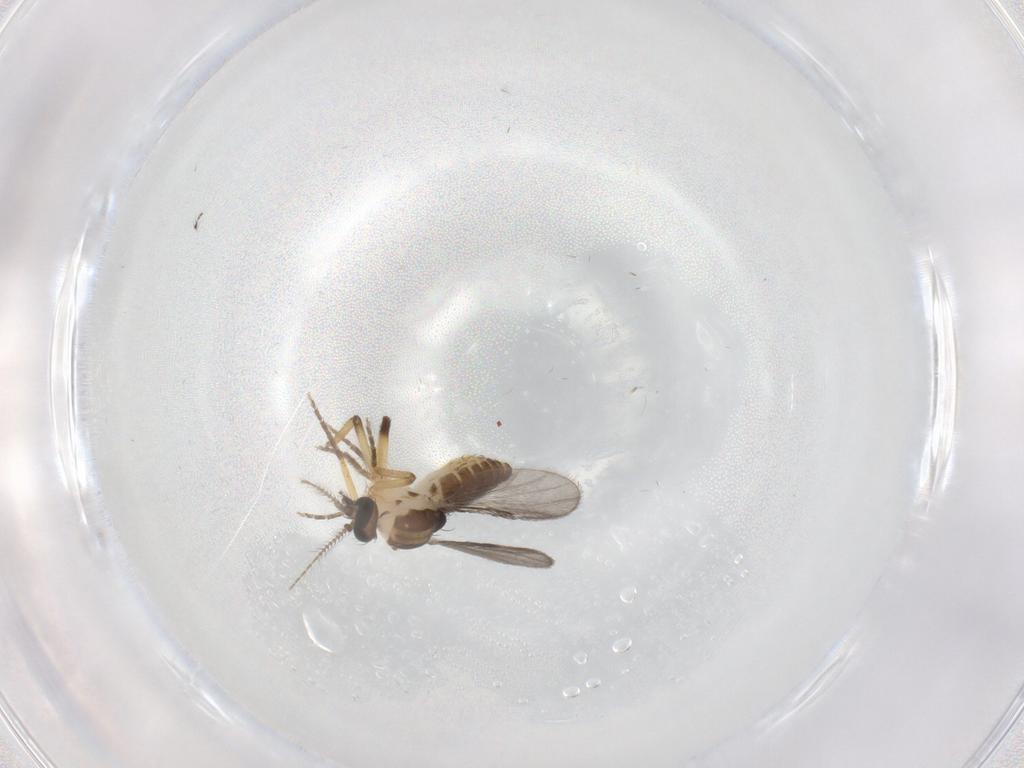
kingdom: Animalia
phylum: Arthropoda
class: Insecta
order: Diptera
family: Ceratopogonidae
